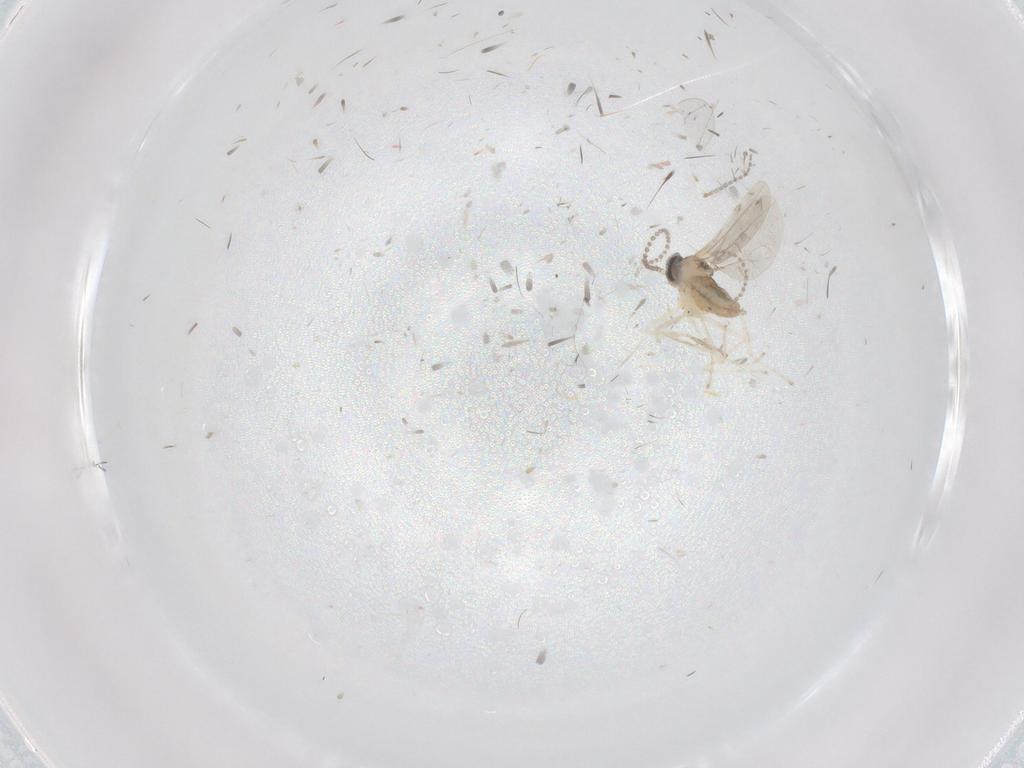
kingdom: Animalia
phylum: Arthropoda
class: Insecta
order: Diptera
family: Cecidomyiidae
